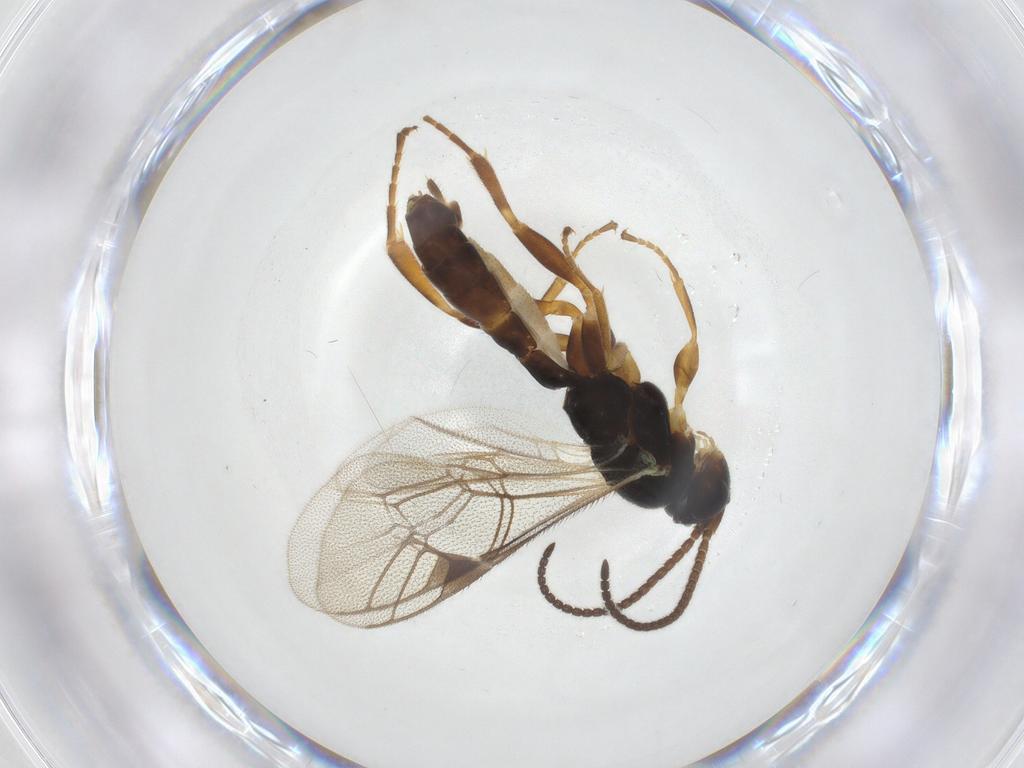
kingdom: Animalia
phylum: Arthropoda
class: Insecta
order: Hymenoptera
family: Ichneumonidae
